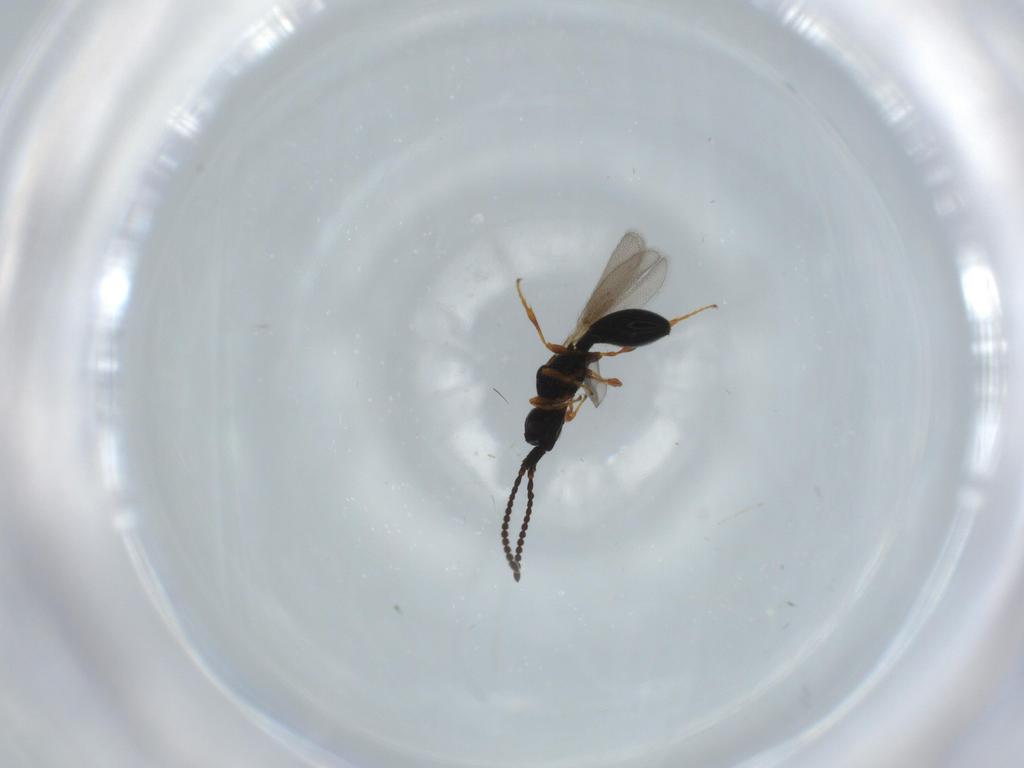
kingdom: Animalia
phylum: Arthropoda
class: Insecta
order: Hymenoptera
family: Diapriidae
